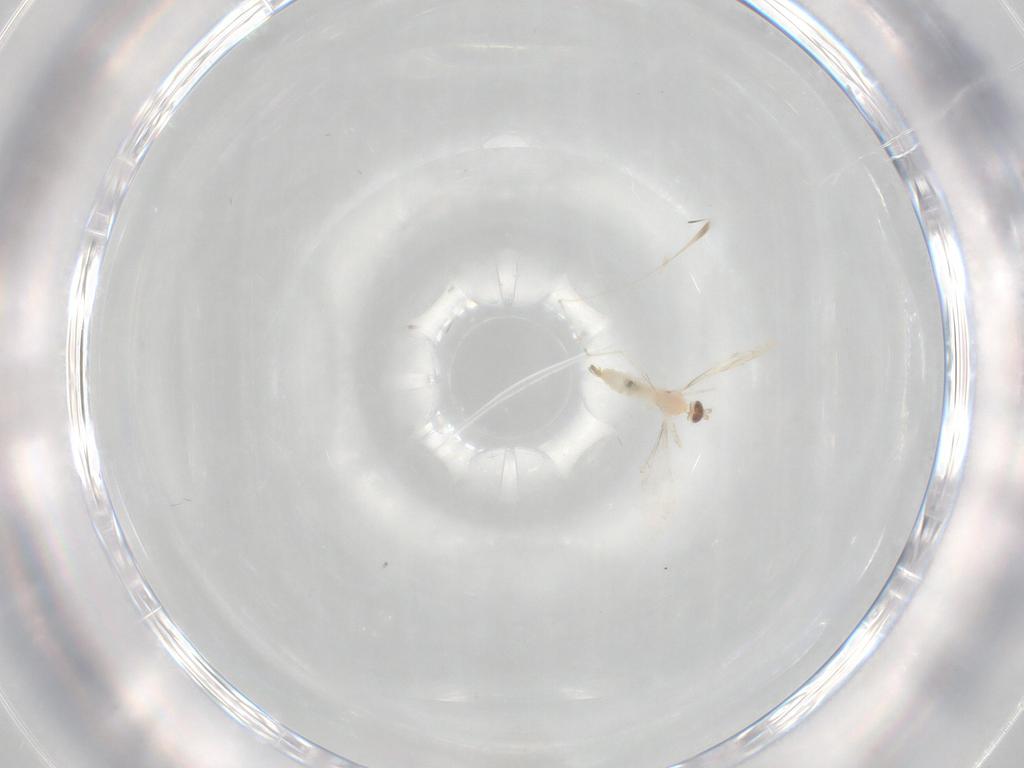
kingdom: Animalia
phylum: Arthropoda
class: Insecta
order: Diptera
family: Cecidomyiidae
